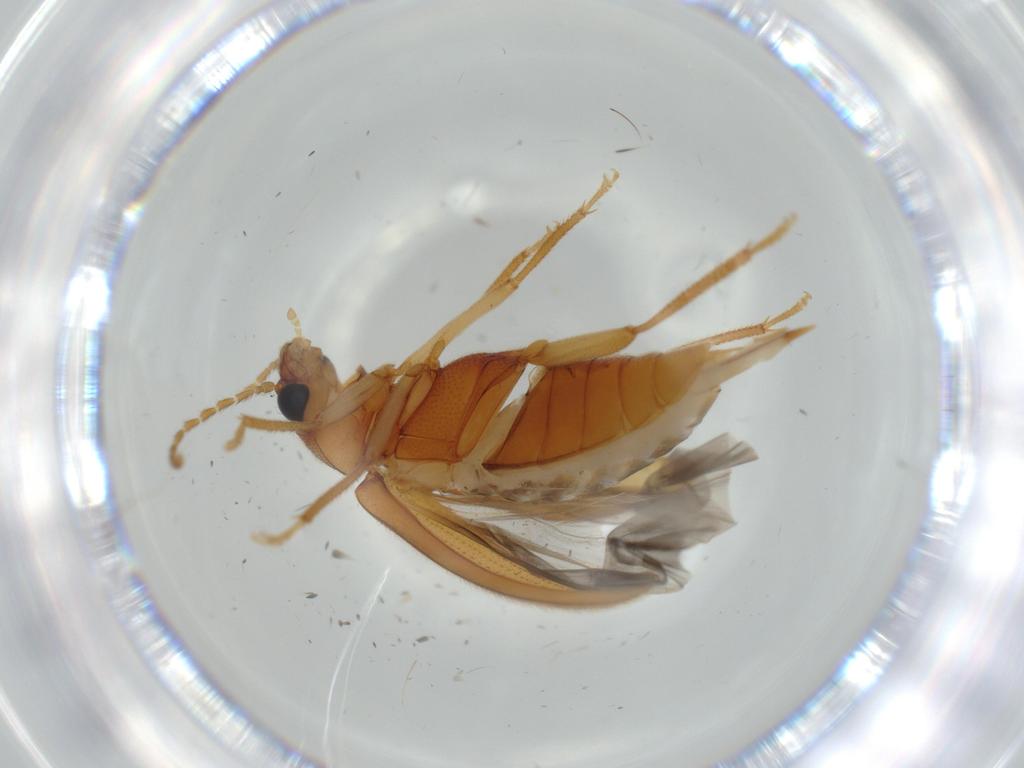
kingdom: Animalia
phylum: Arthropoda
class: Insecta
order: Coleoptera
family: Ptilodactylidae
